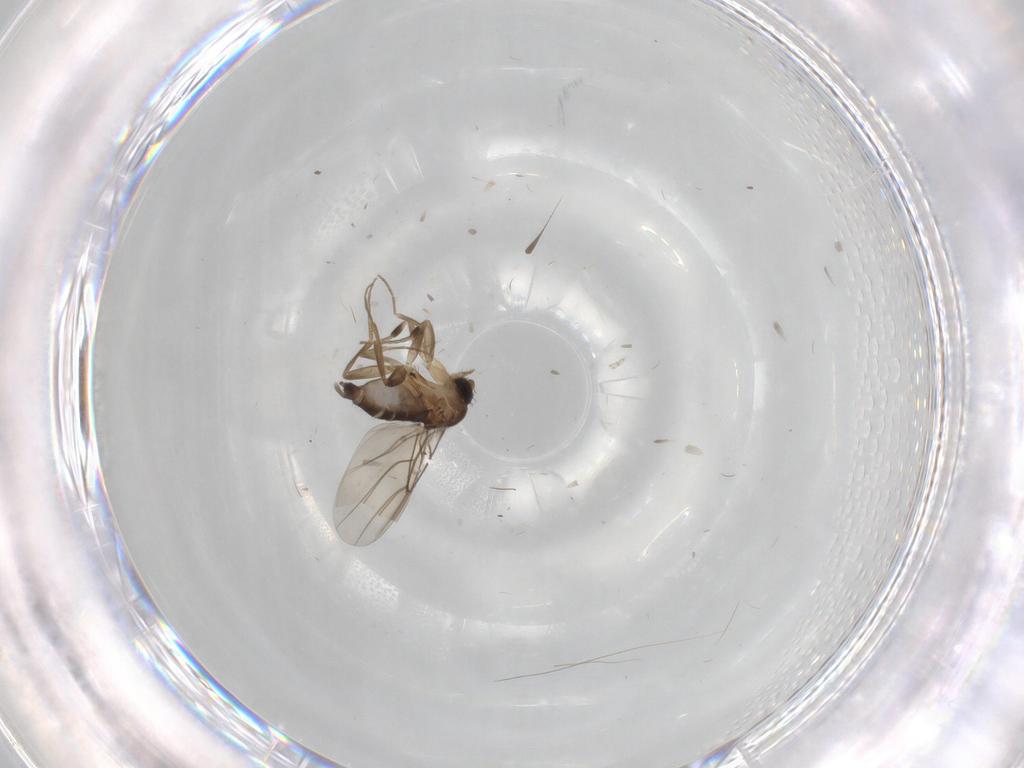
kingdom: Animalia
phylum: Arthropoda
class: Insecta
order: Diptera
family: Phoridae
